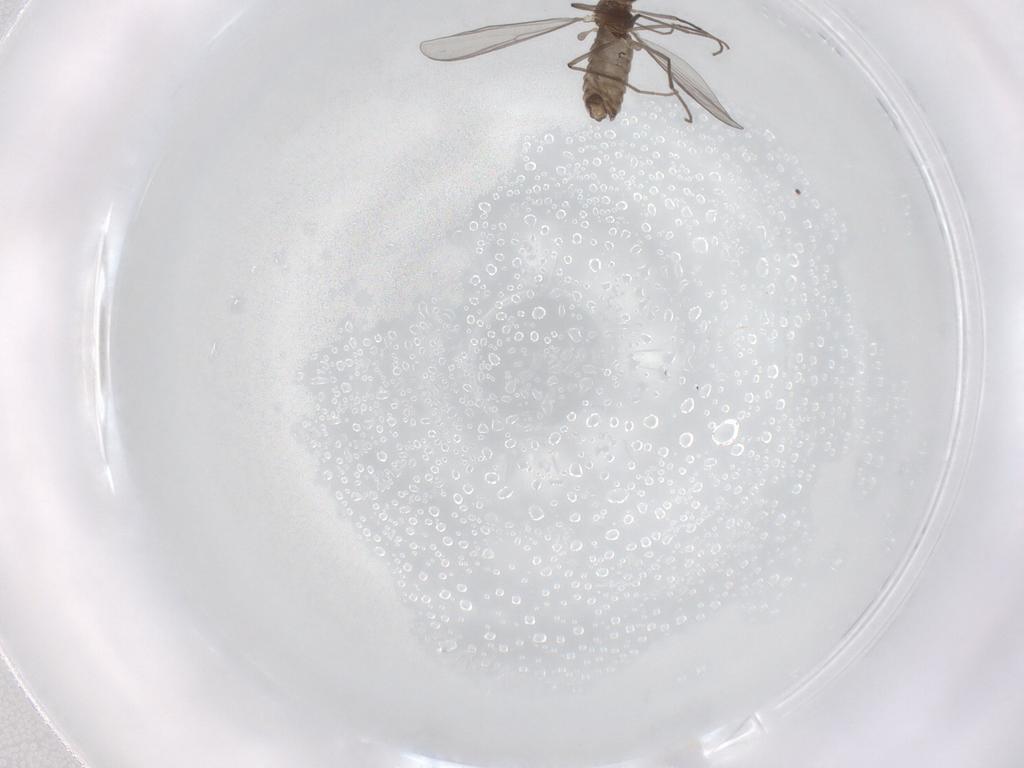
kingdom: Animalia
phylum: Arthropoda
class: Insecta
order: Diptera
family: Chironomidae
